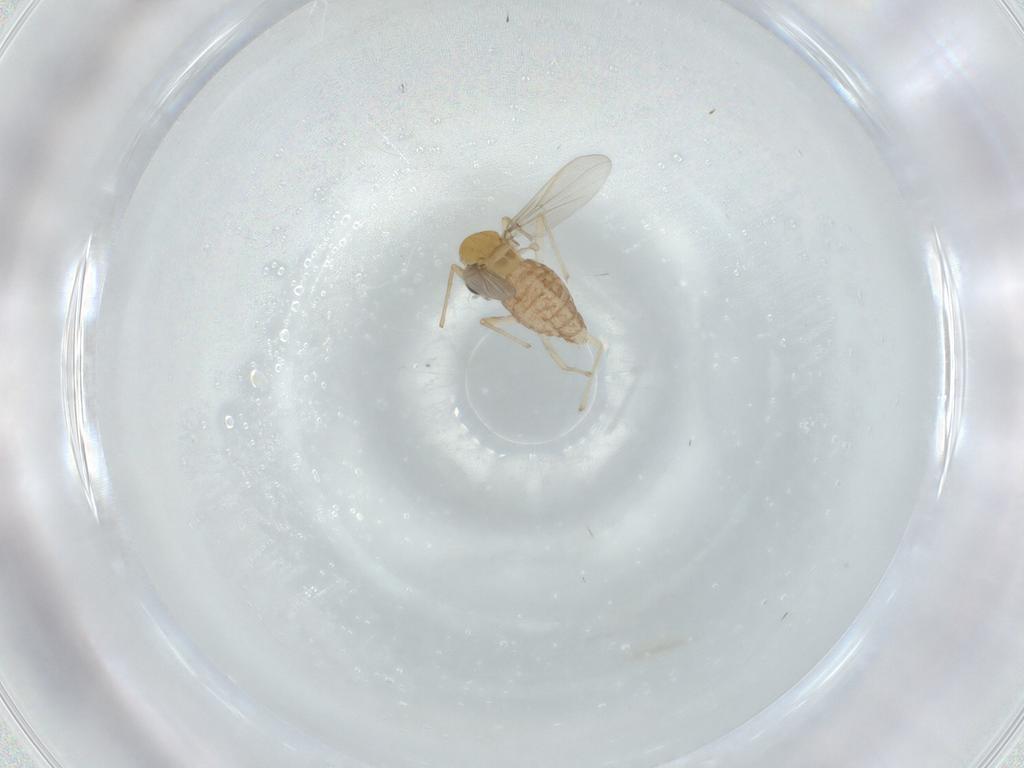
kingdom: Animalia
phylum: Arthropoda
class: Insecta
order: Diptera
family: Chironomidae
